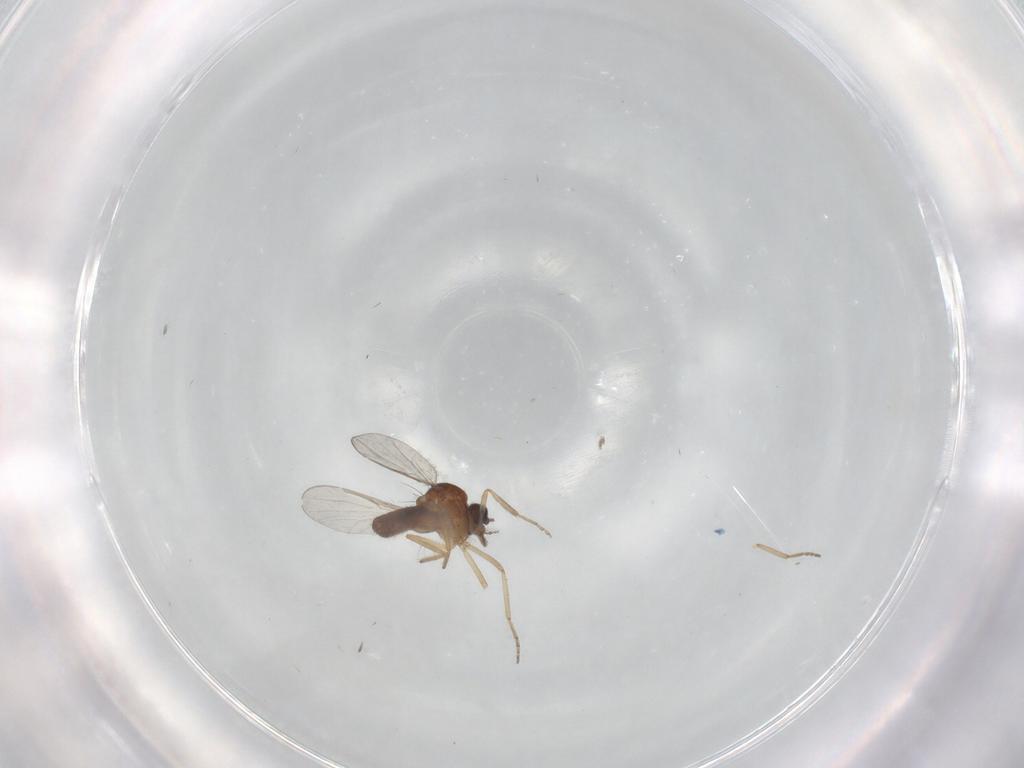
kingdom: Animalia
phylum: Arthropoda
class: Insecta
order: Diptera
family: Ceratopogonidae
